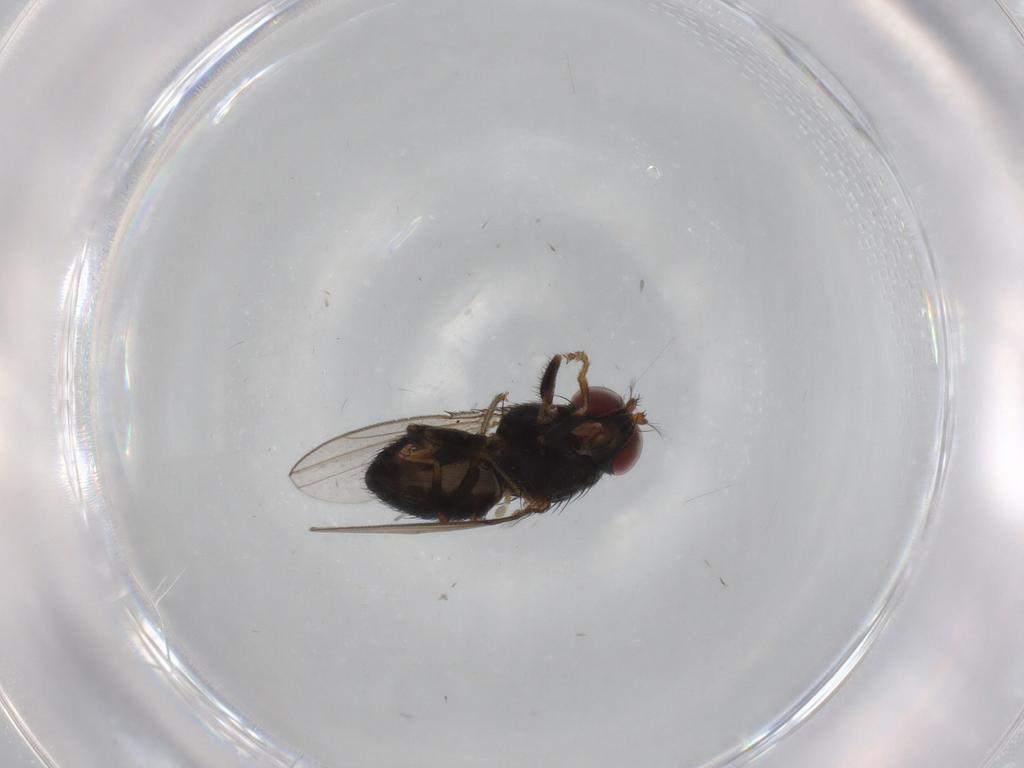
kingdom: Animalia
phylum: Arthropoda
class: Insecta
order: Diptera
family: Psychodidae
